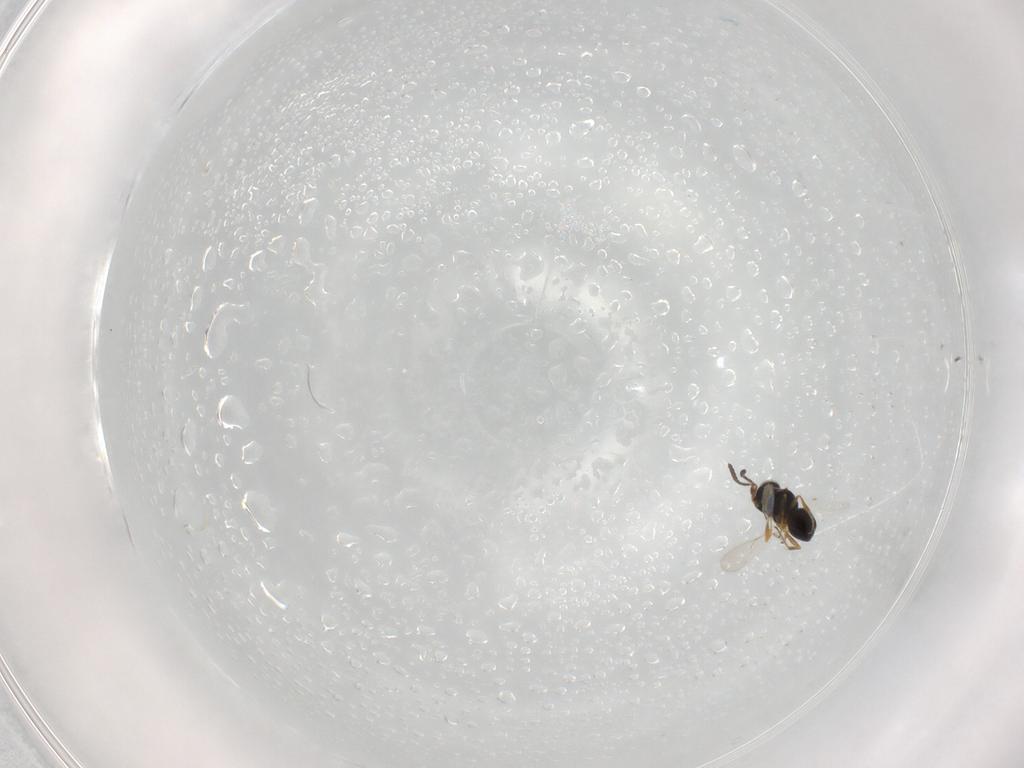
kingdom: Animalia
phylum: Arthropoda
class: Insecta
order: Hymenoptera
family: Scelionidae
